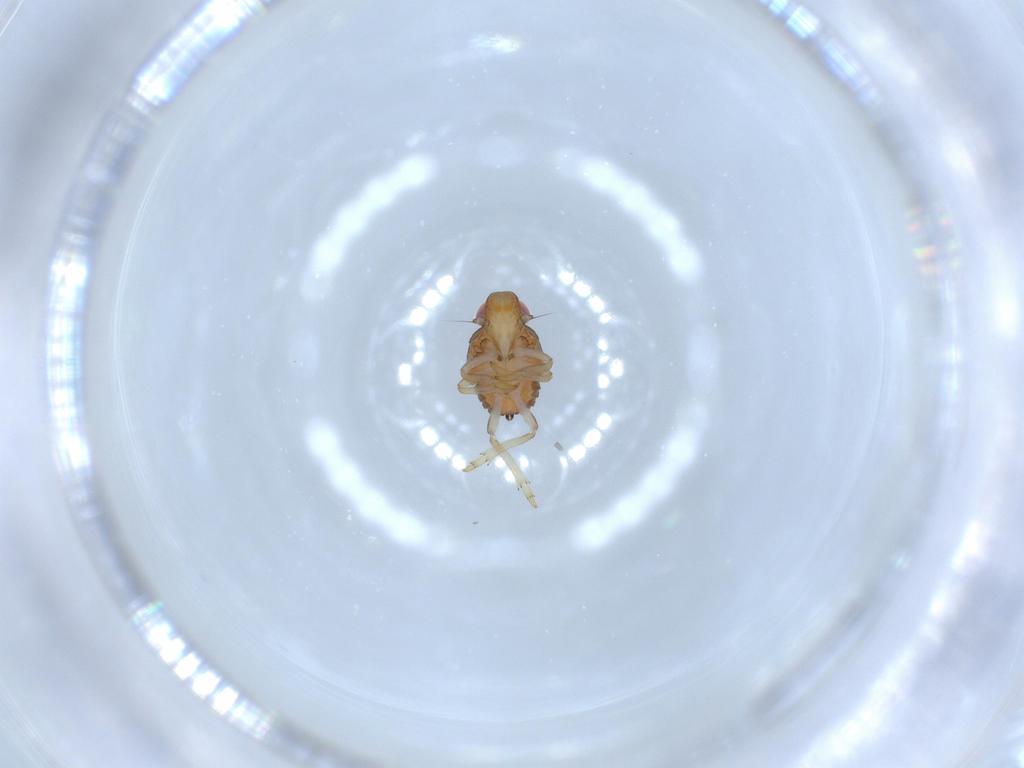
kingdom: Animalia
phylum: Arthropoda
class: Insecta
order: Hemiptera
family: Issidae
